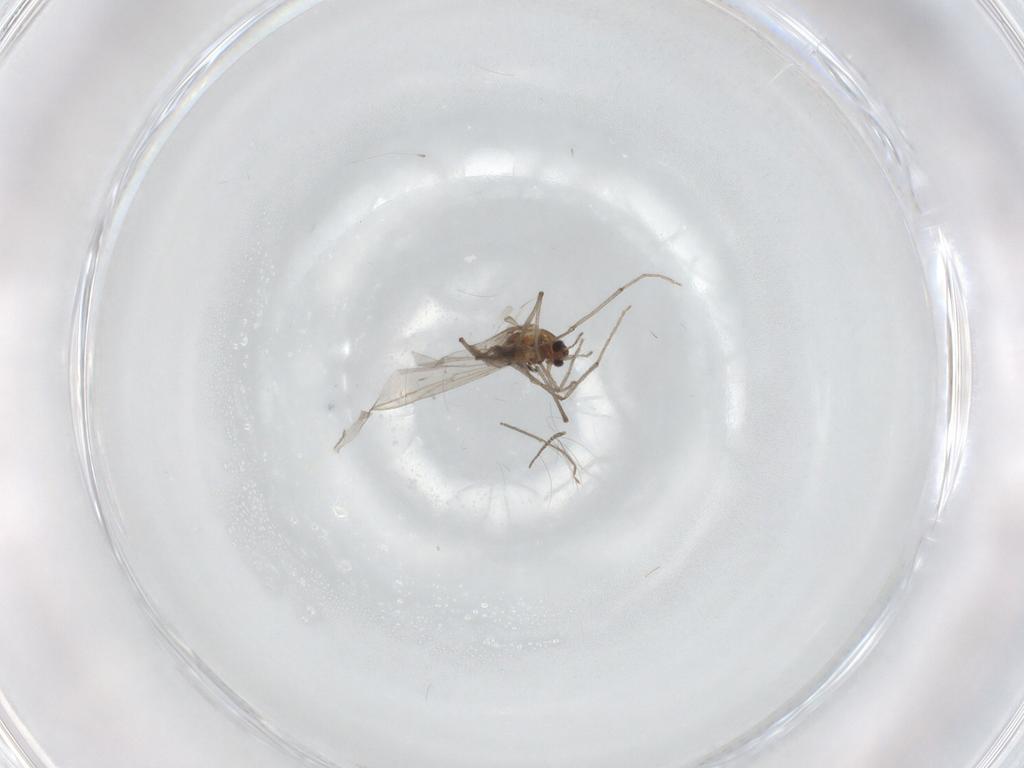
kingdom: Animalia
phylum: Arthropoda
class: Insecta
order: Diptera
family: Chironomidae
